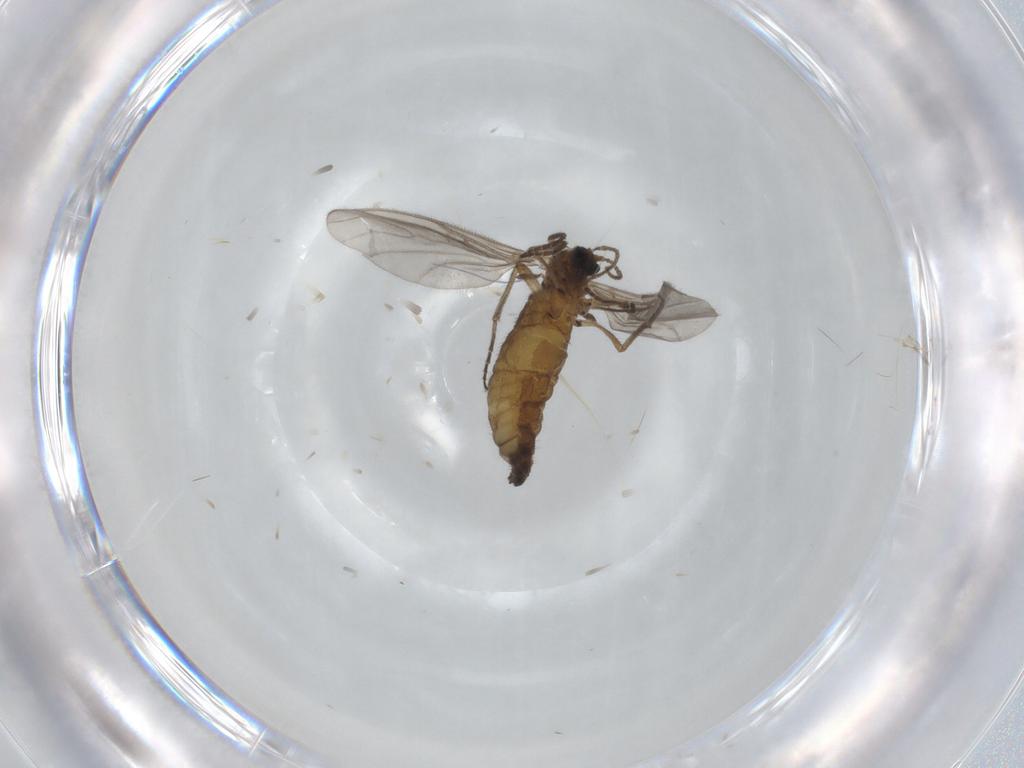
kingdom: Animalia
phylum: Arthropoda
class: Insecta
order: Diptera
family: Sciaridae
